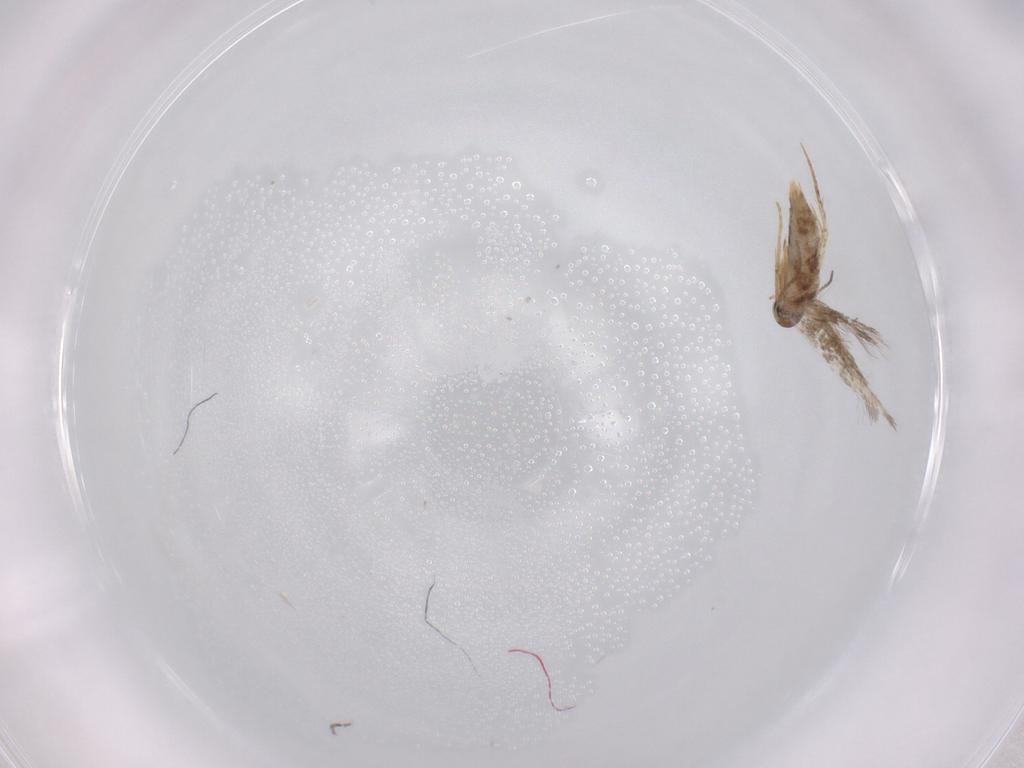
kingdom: Animalia
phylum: Arthropoda
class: Insecta
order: Lepidoptera
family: Gelechiidae
